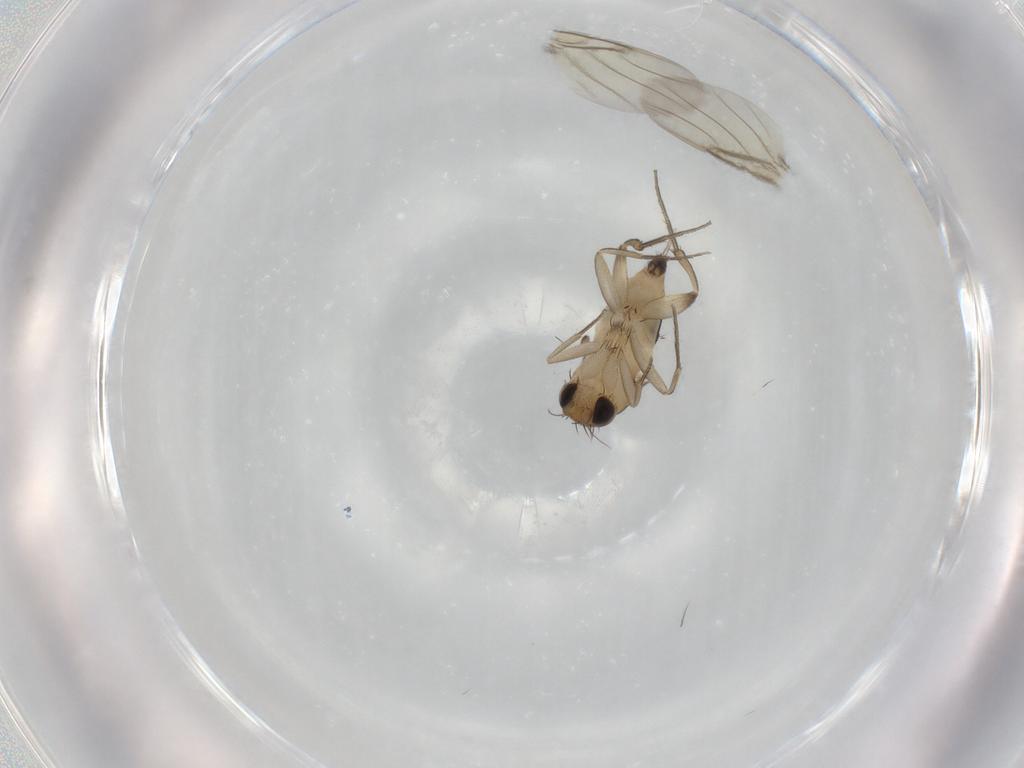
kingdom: Animalia
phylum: Arthropoda
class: Insecta
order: Diptera
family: Phoridae
